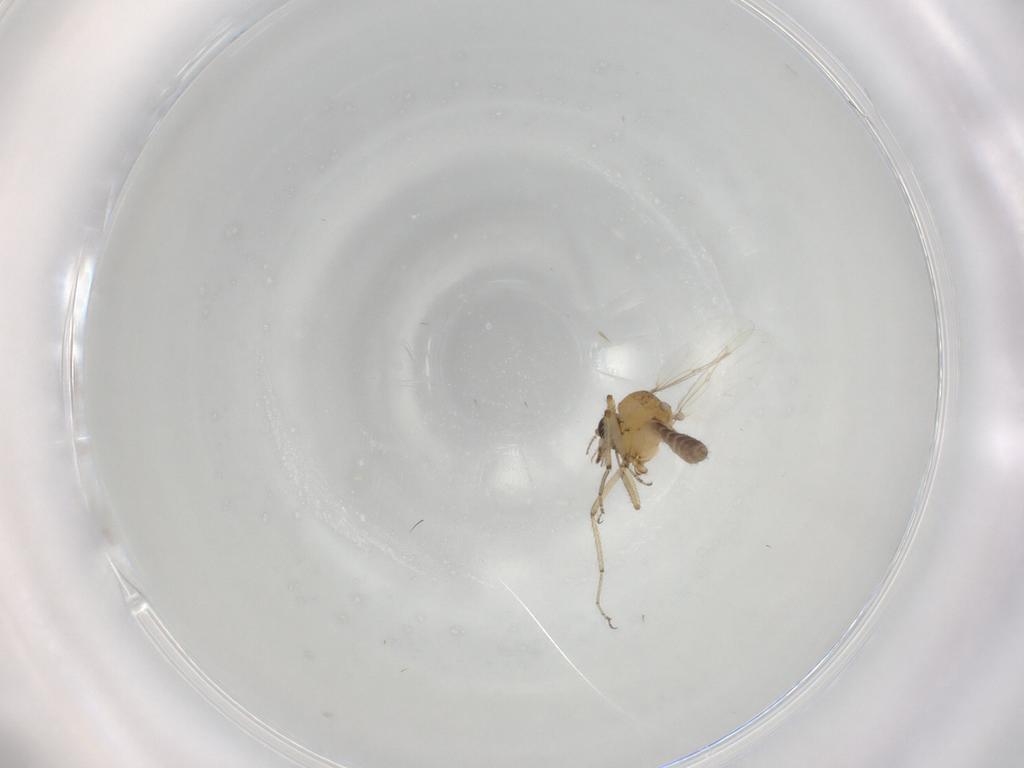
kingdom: Animalia
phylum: Arthropoda
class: Insecta
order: Diptera
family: Ceratopogonidae
